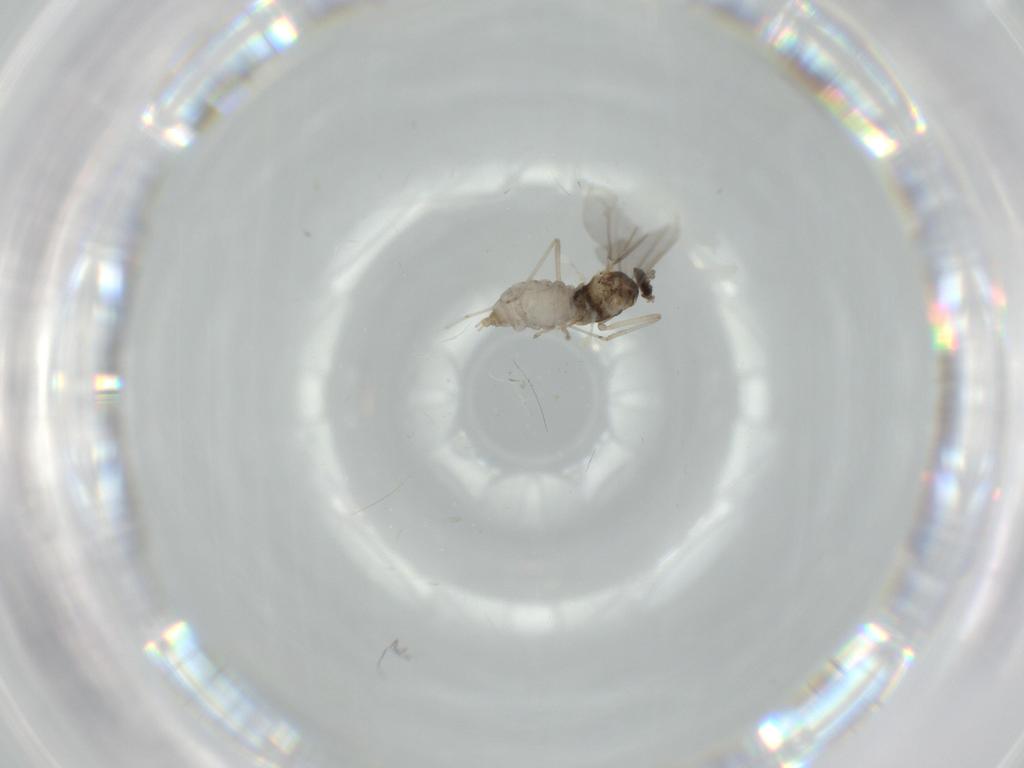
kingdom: Animalia
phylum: Arthropoda
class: Insecta
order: Diptera
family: Cecidomyiidae
